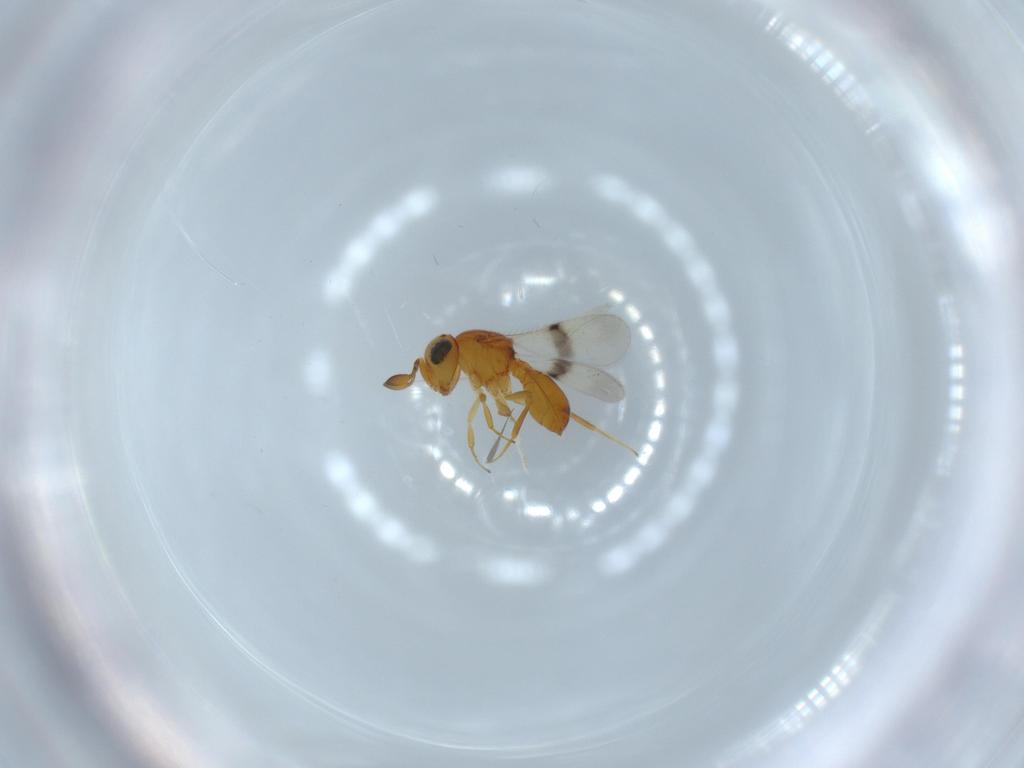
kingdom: Animalia
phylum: Arthropoda
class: Insecta
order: Hymenoptera
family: Scelionidae
